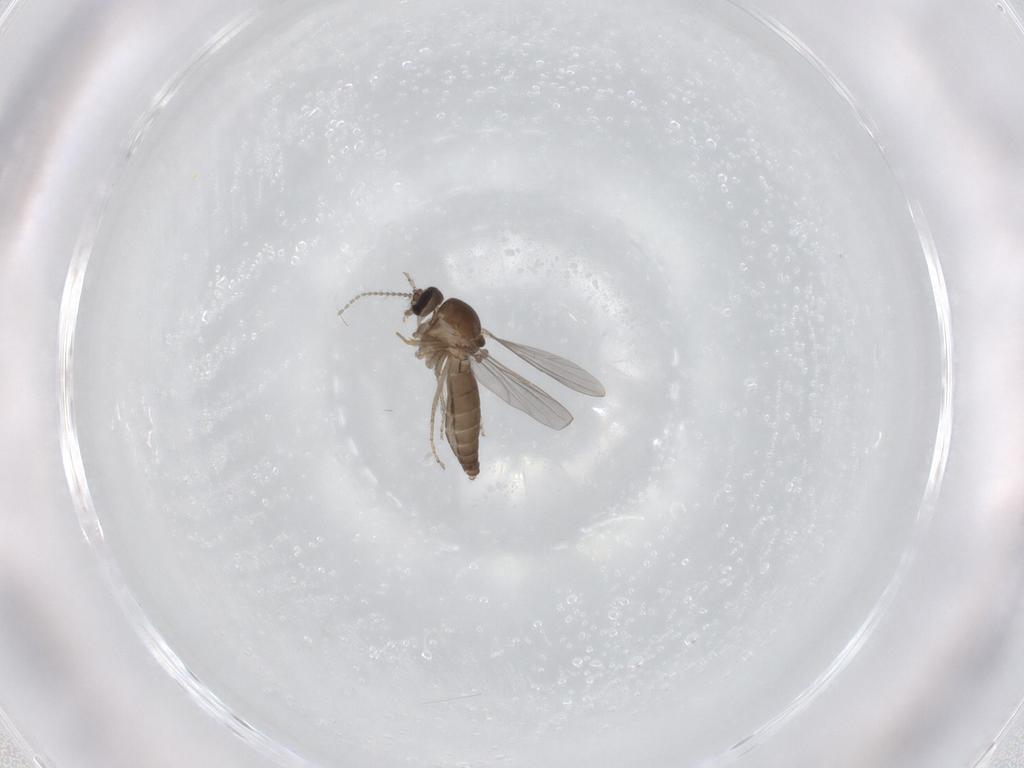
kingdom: Animalia
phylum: Arthropoda
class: Insecta
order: Diptera
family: Ceratopogonidae
